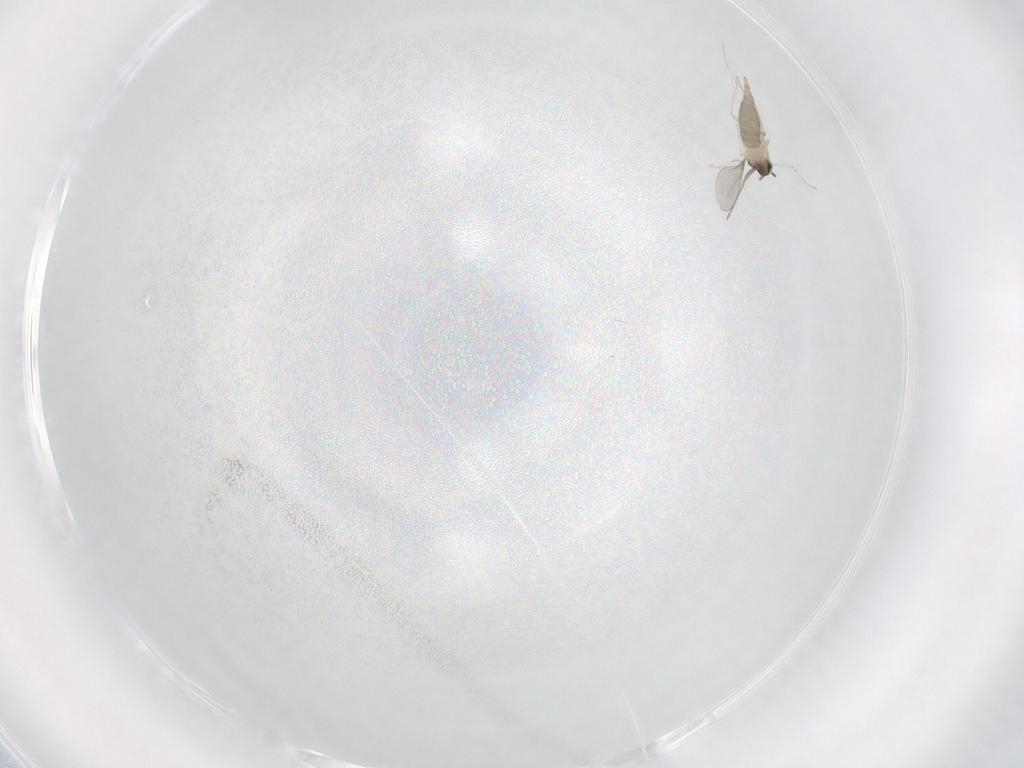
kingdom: Animalia
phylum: Arthropoda
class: Insecta
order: Diptera
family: Cecidomyiidae
